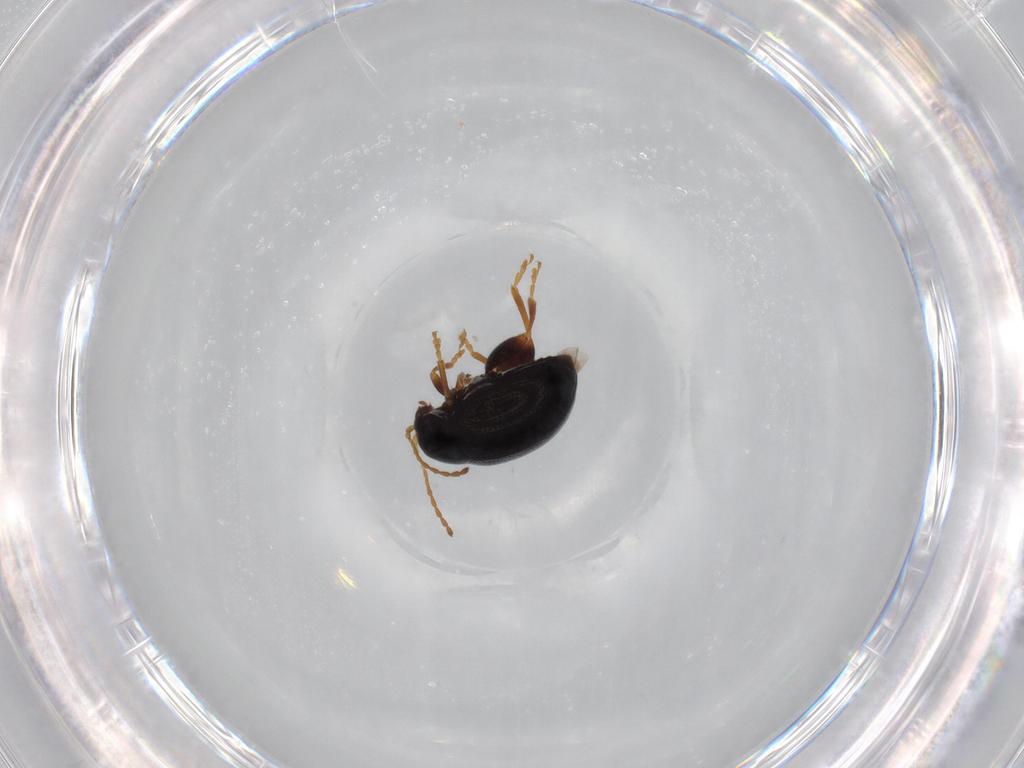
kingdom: Animalia
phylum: Arthropoda
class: Insecta
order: Coleoptera
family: Chrysomelidae
